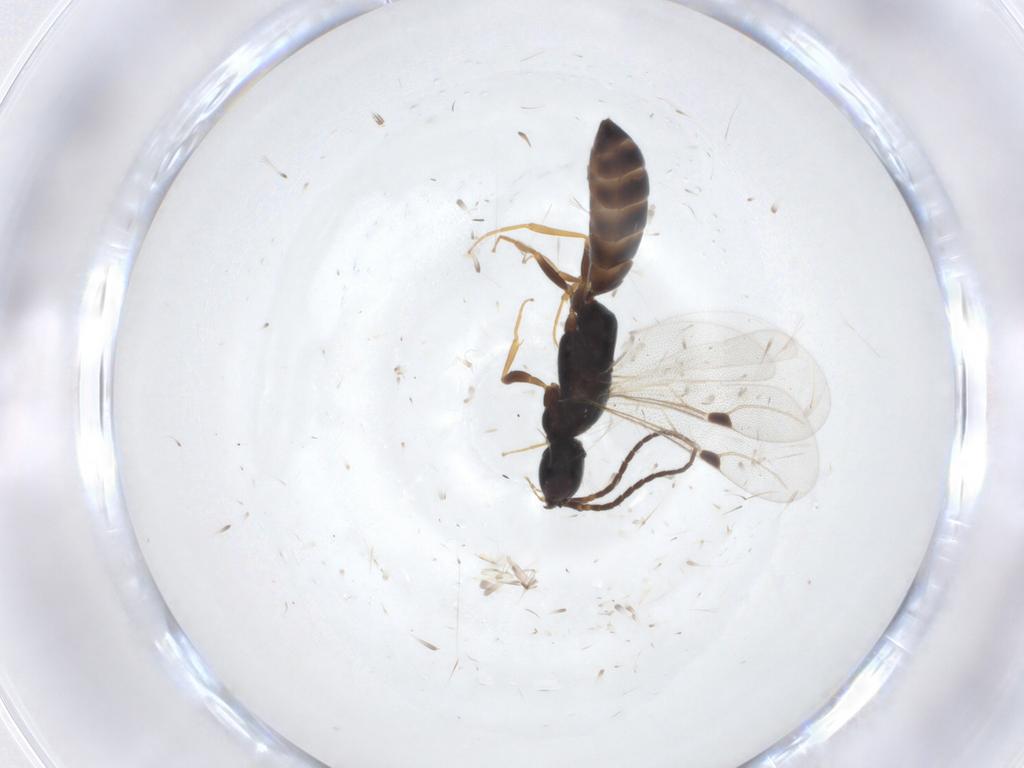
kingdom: Animalia
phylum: Arthropoda
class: Insecta
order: Hymenoptera
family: Bethylidae
